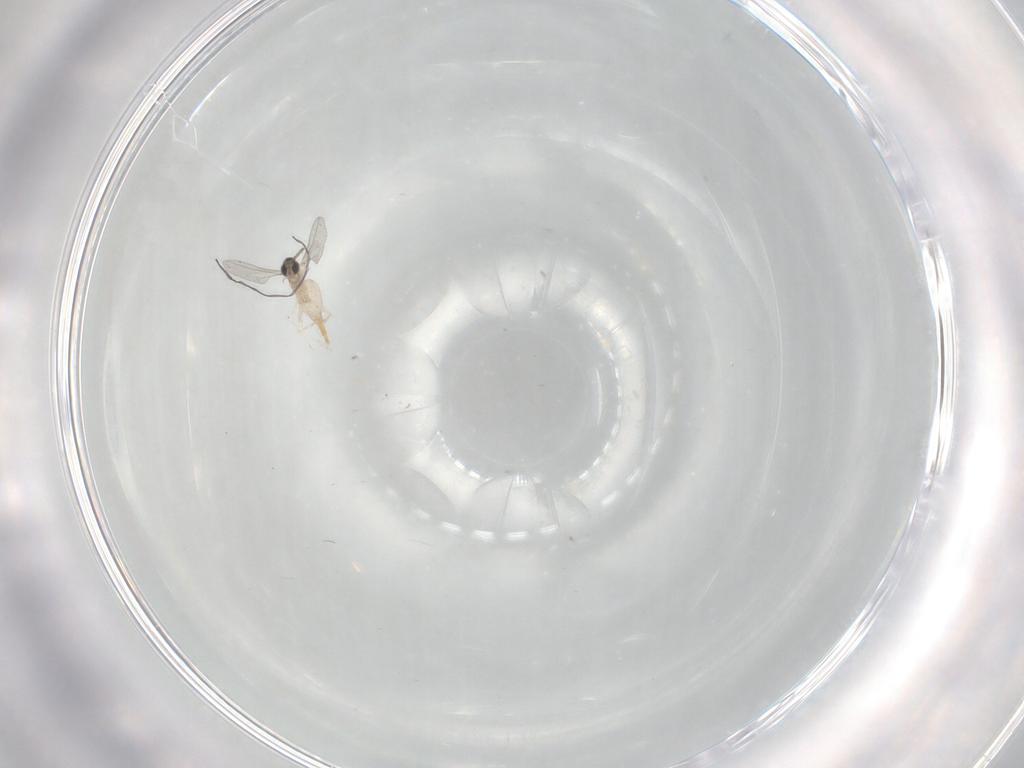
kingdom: Animalia
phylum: Arthropoda
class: Insecta
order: Diptera
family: Cecidomyiidae
